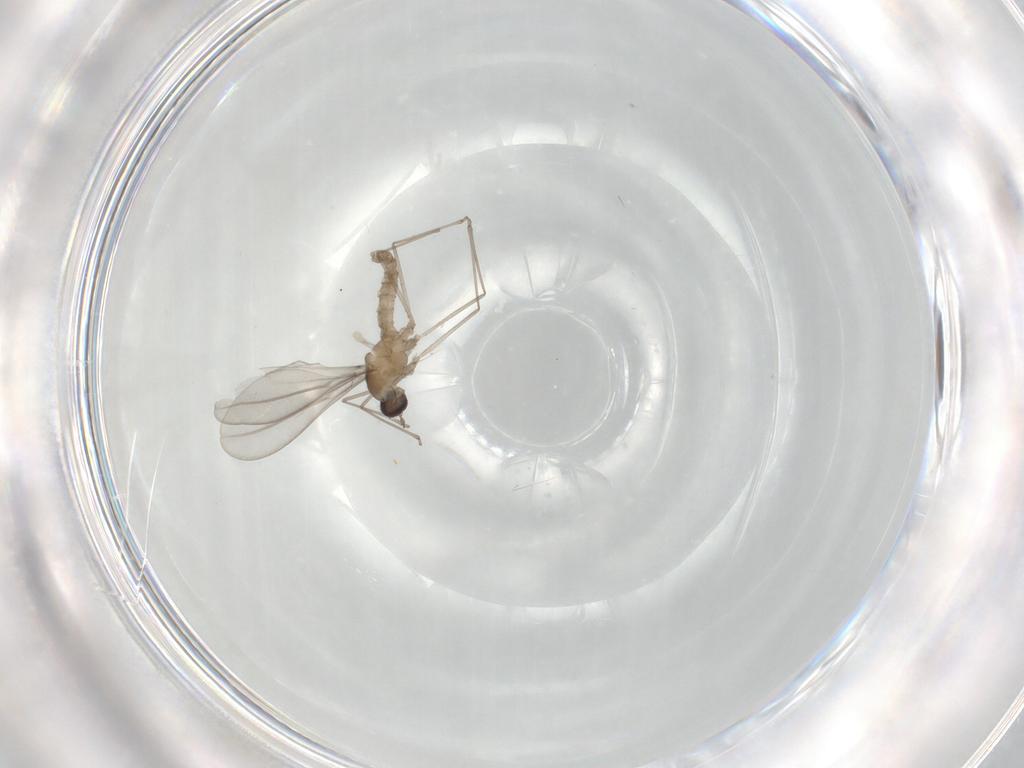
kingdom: Animalia
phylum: Arthropoda
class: Insecta
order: Diptera
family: Cecidomyiidae
